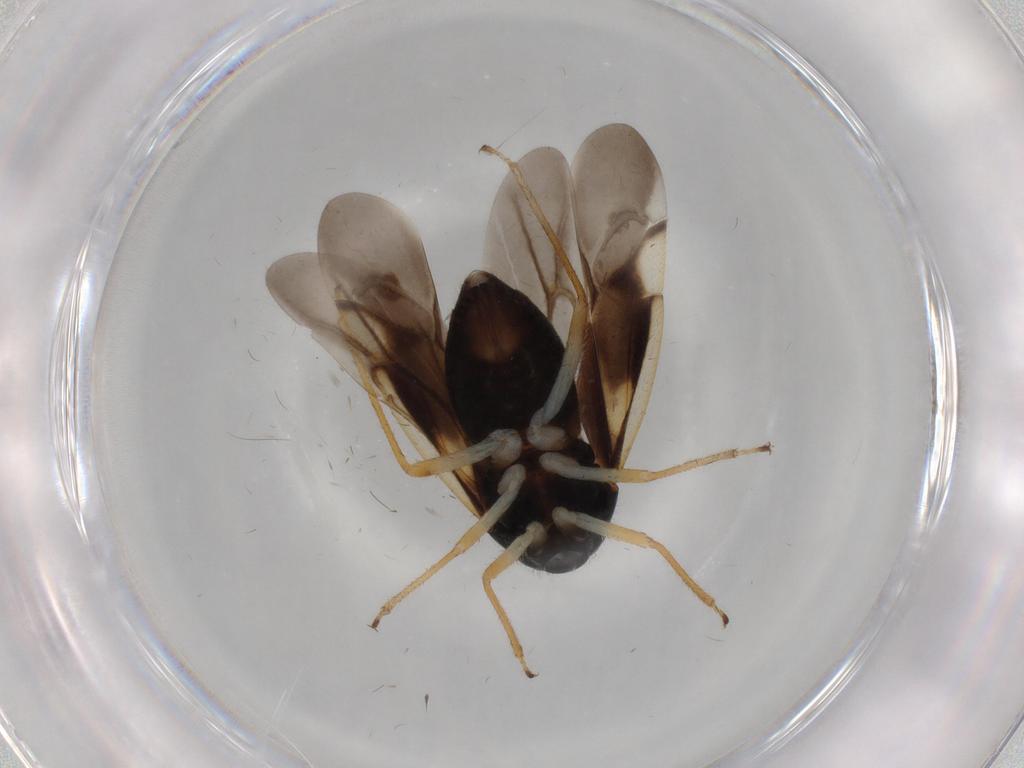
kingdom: Animalia
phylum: Arthropoda
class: Insecta
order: Hemiptera
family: Miridae
